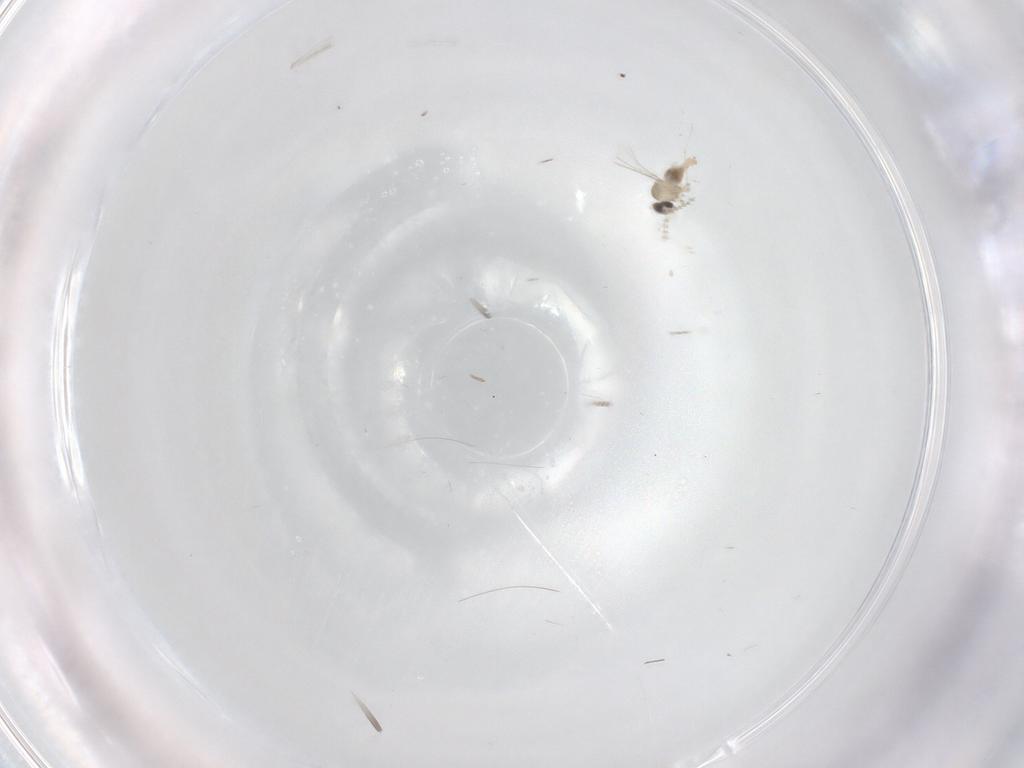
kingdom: Animalia
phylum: Arthropoda
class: Insecta
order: Diptera
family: Cecidomyiidae
